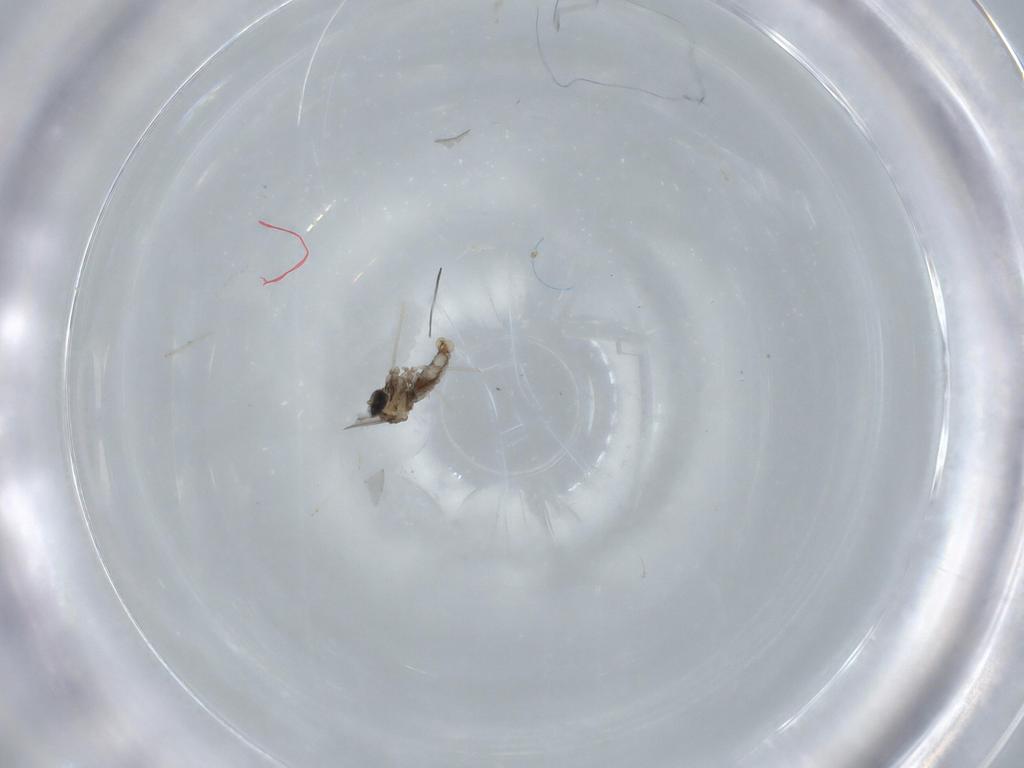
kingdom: Animalia
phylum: Arthropoda
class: Insecta
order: Diptera
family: Cecidomyiidae
